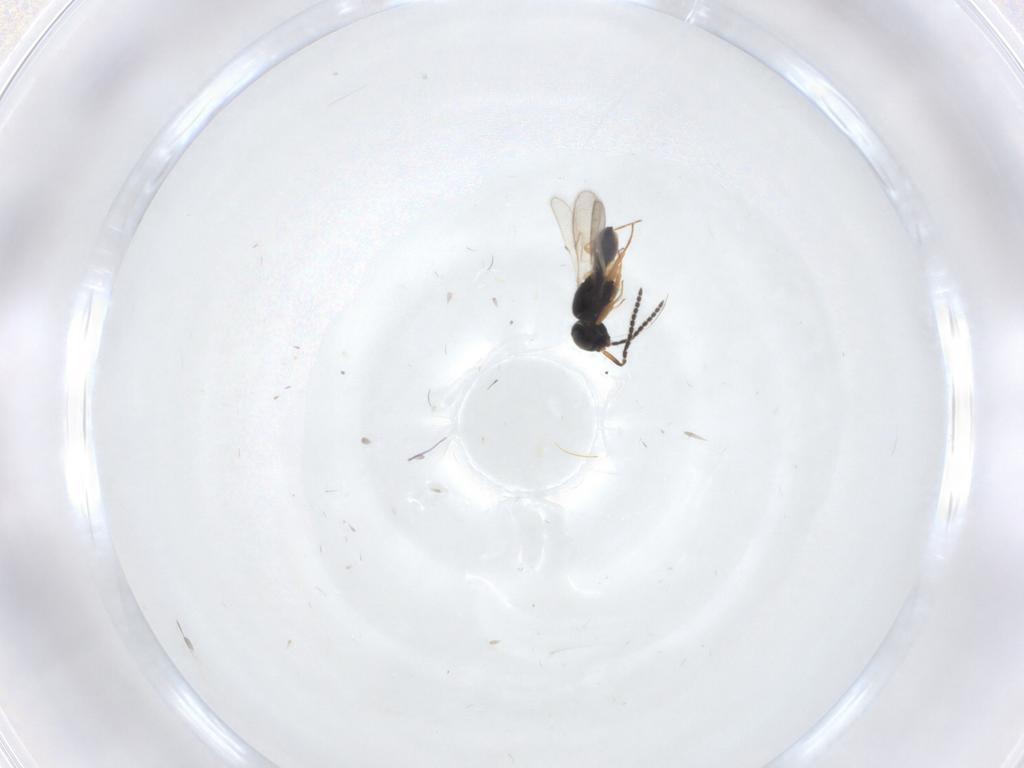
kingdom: Animalia
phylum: Arthropoda
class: Insecta
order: Hymenoptera
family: Scelionidae
